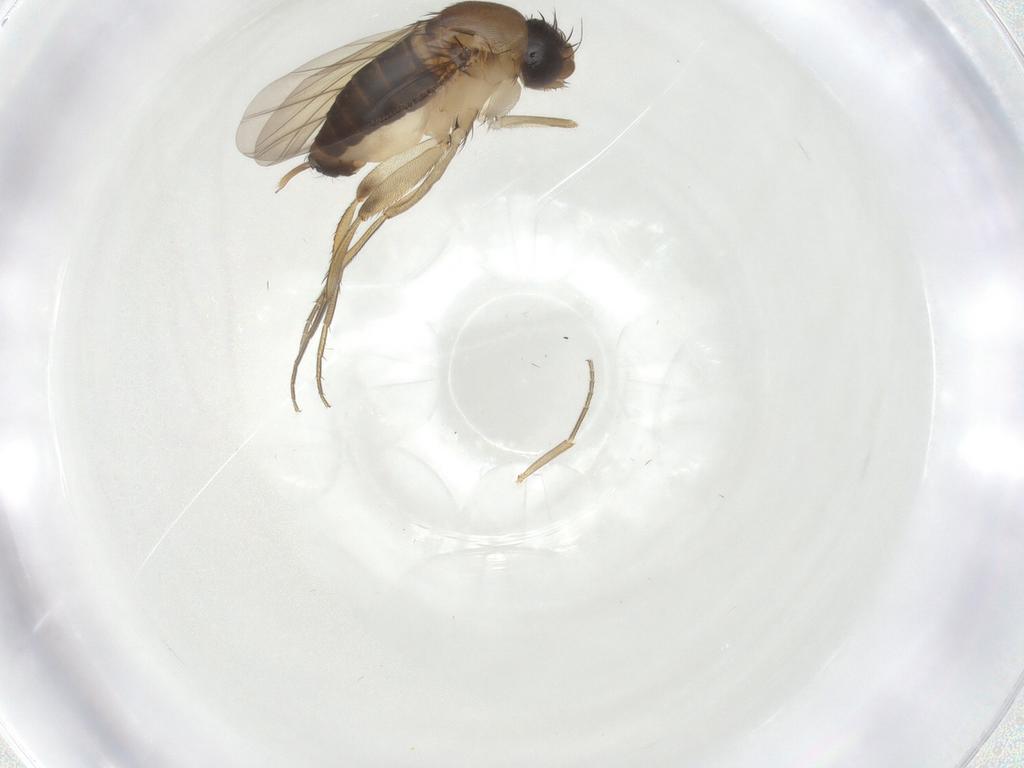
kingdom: Animalia
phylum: Arthropoda
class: Insecta
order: Diptera
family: Phoridae
